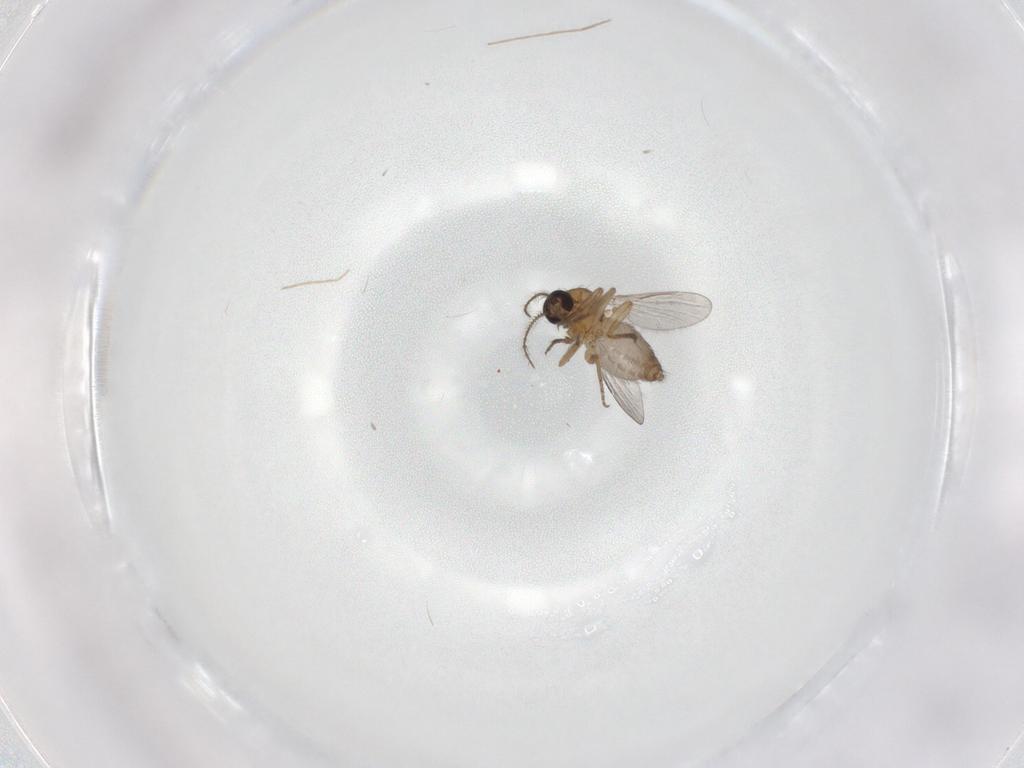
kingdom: Animalia
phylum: Arthropoda
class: Insecta
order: Diptera
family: Ceratopogonidae
